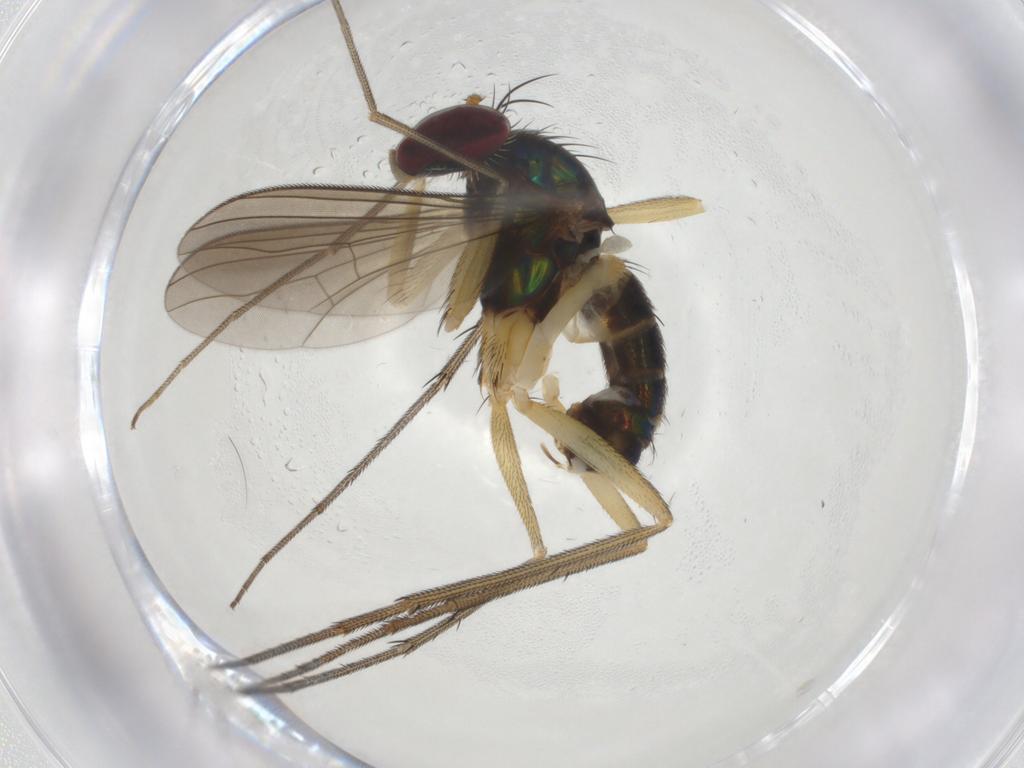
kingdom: Animalia
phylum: Arthropoda
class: Insecta
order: Diptera
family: Dolichopodidae
